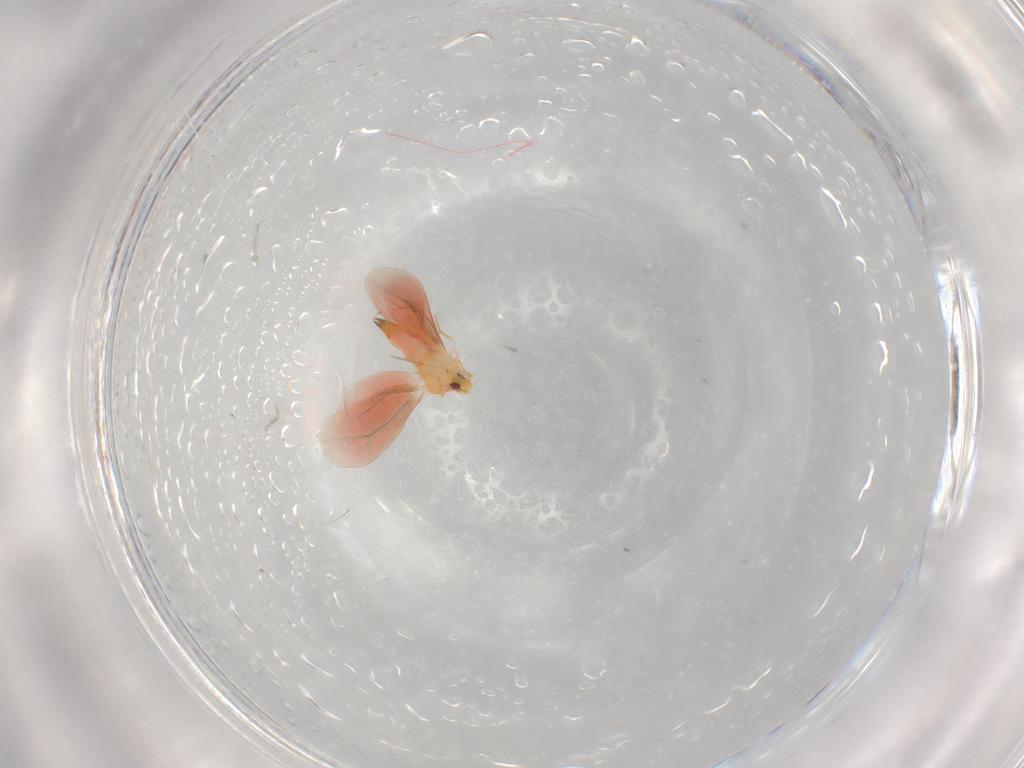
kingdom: Animalia
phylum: Arthropoda
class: Insecta
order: Hemiptera
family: Aleyrodidae
